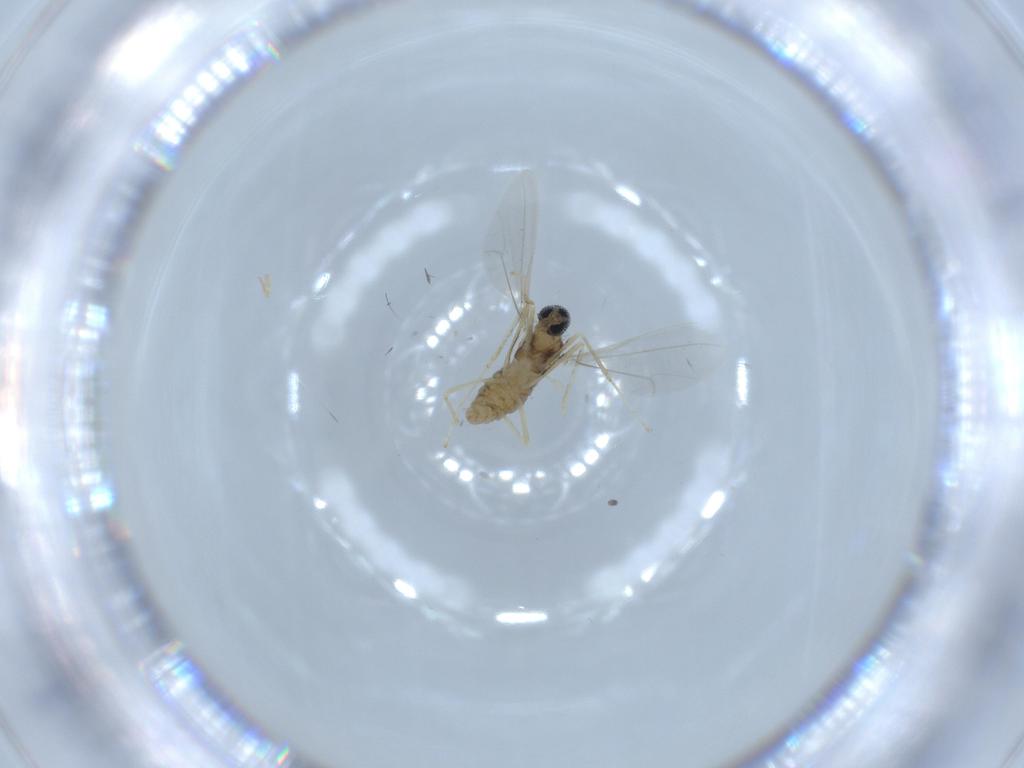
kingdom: Animalia
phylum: Arthropoda
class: Insecta
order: Diptera
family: Cecidomyiidae
